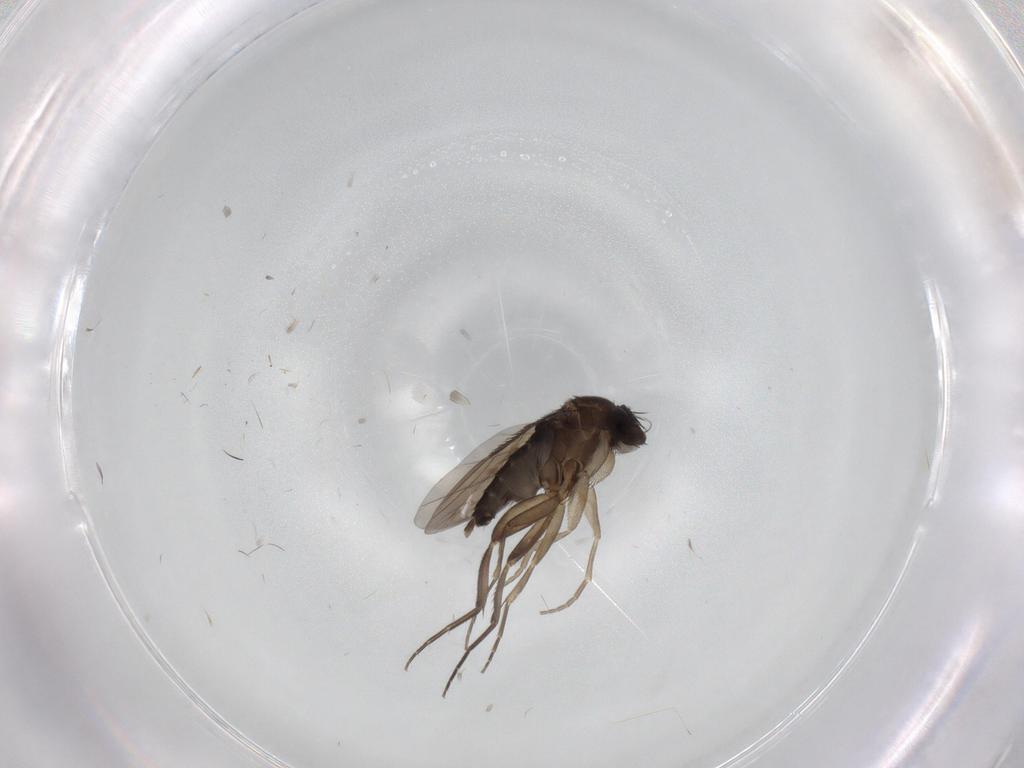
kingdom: Animalia
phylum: Arthropoda
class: Insecta
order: Diptera
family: Phoridae
